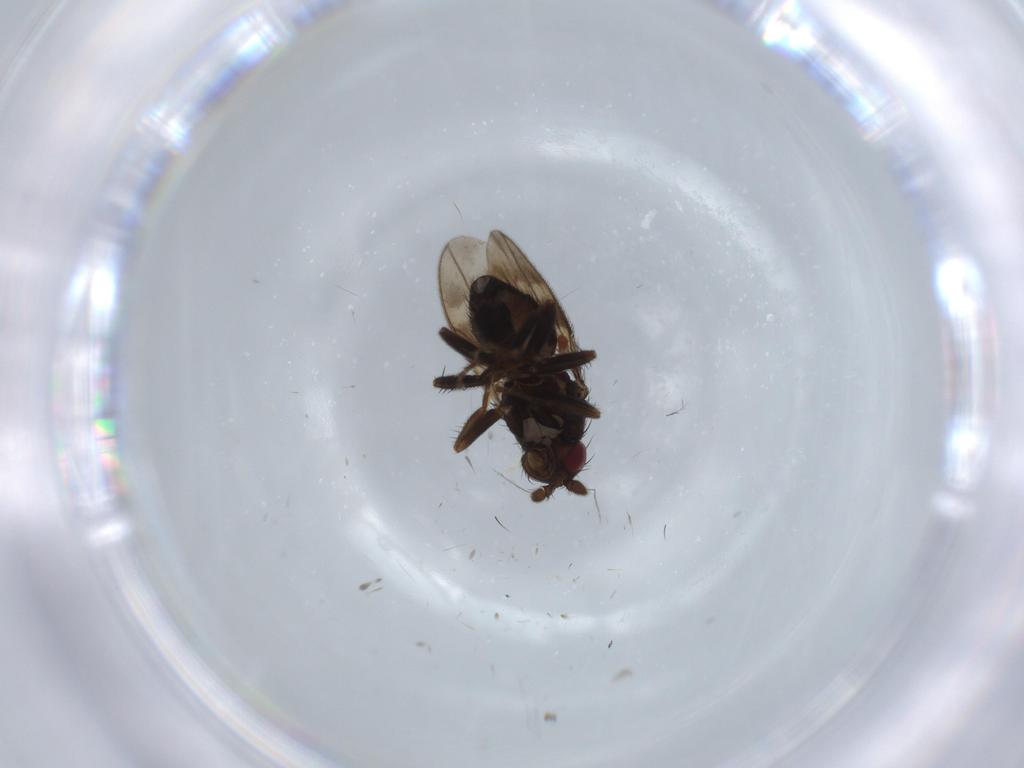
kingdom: Animalia
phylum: Arthropoda
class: Insecta
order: Diptera
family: Sphaeroceridae
